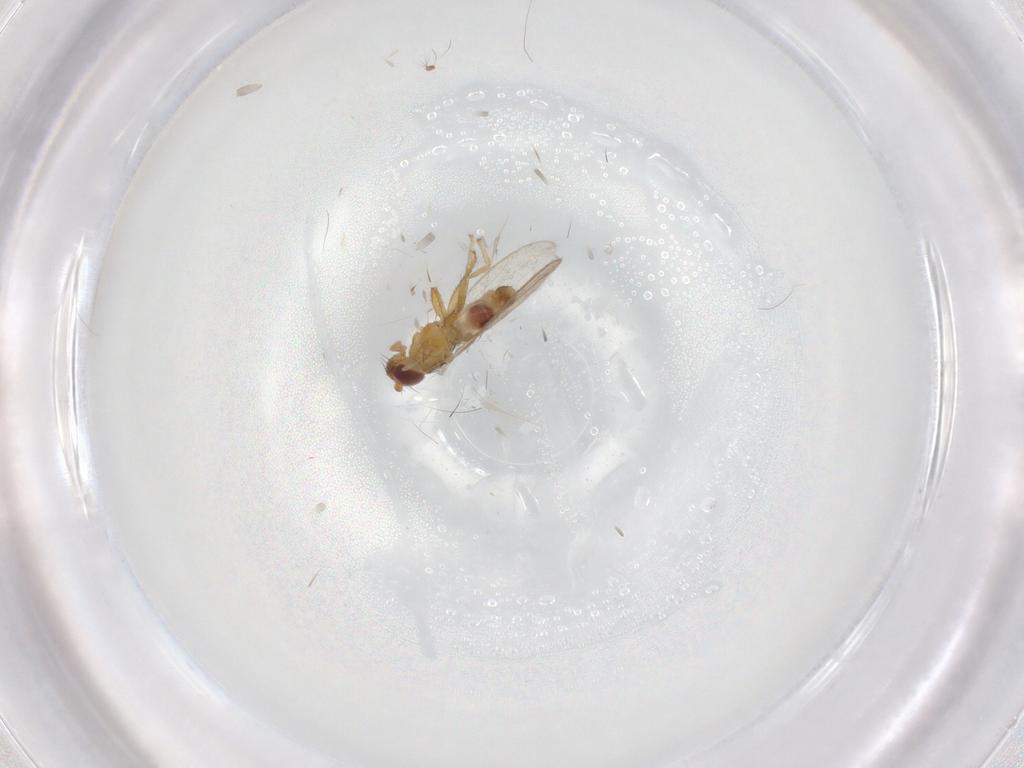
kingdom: Animalia
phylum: Arthropoda
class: Insecta
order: Diptera
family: Periscelididae
